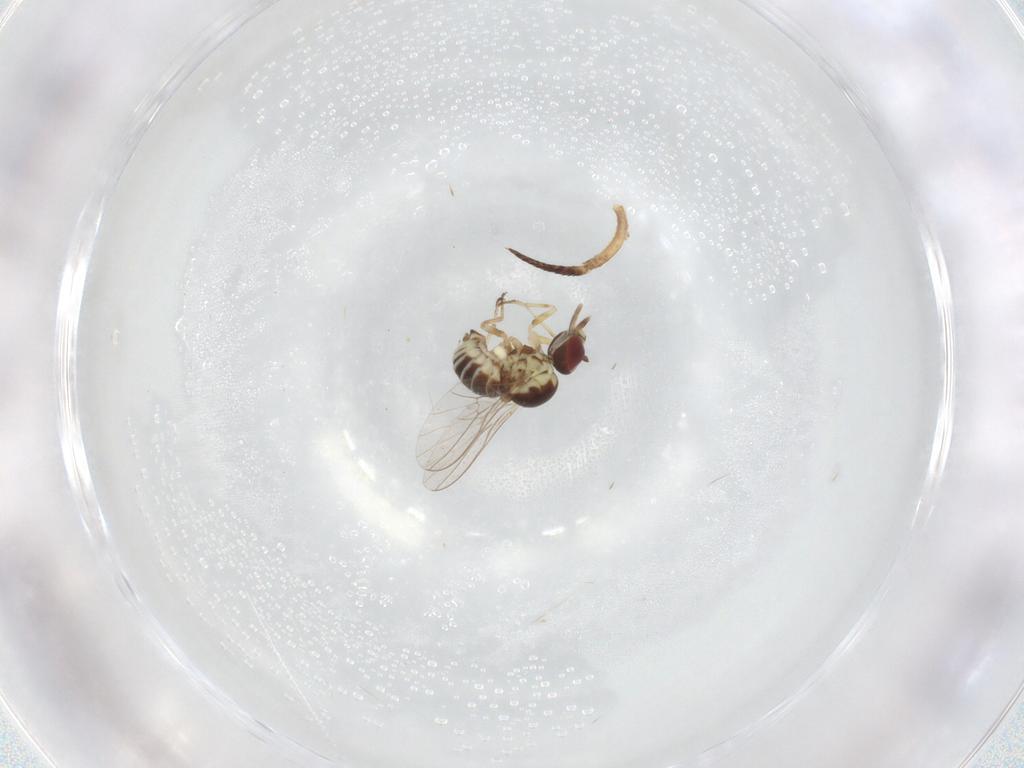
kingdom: Animalia
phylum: Arthropoda
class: Insecta
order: Diptera
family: Bombyliidae
